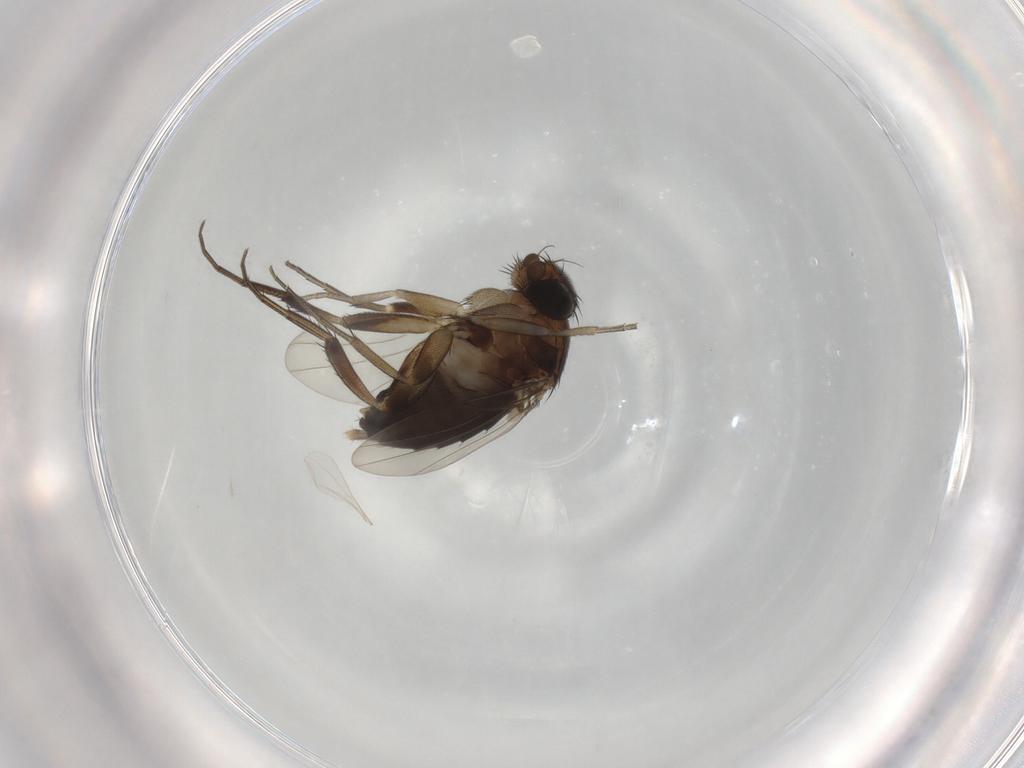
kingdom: Animalia
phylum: Arthropoda
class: Insecta
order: Diptera
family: Phoridae
